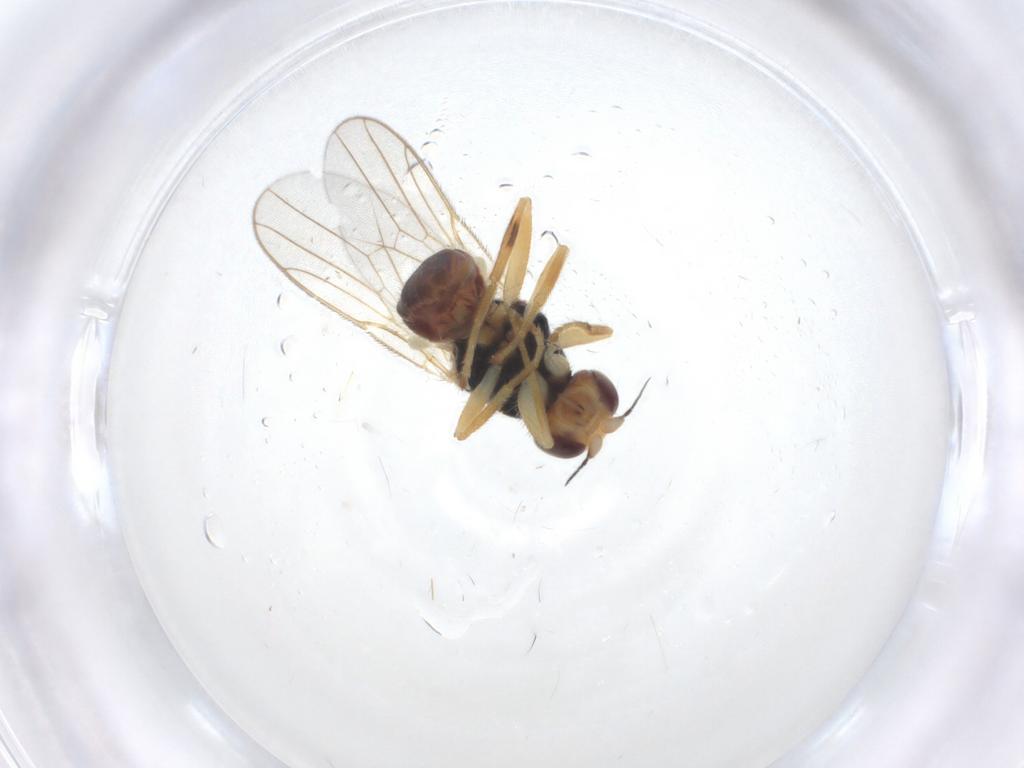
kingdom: Animalia
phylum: Arthropoda
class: Insecta
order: Diptera
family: Chloropidae
